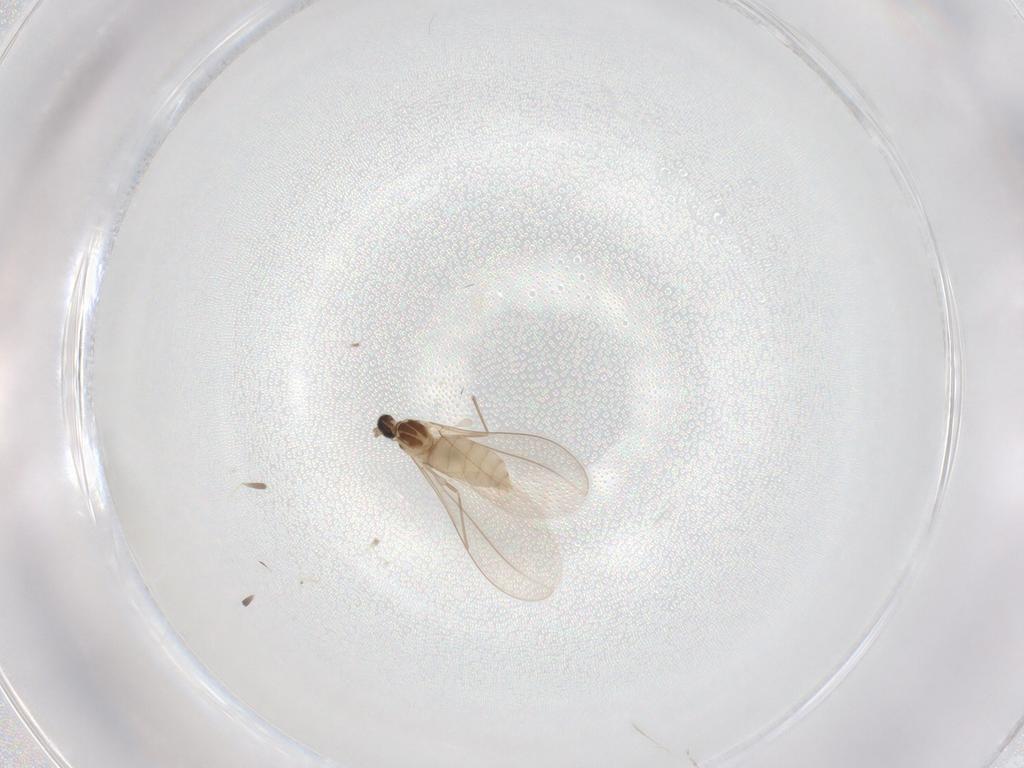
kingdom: Animalia
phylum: Arthropoda
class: Insecta
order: Diptera
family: Cecidomyiidae
